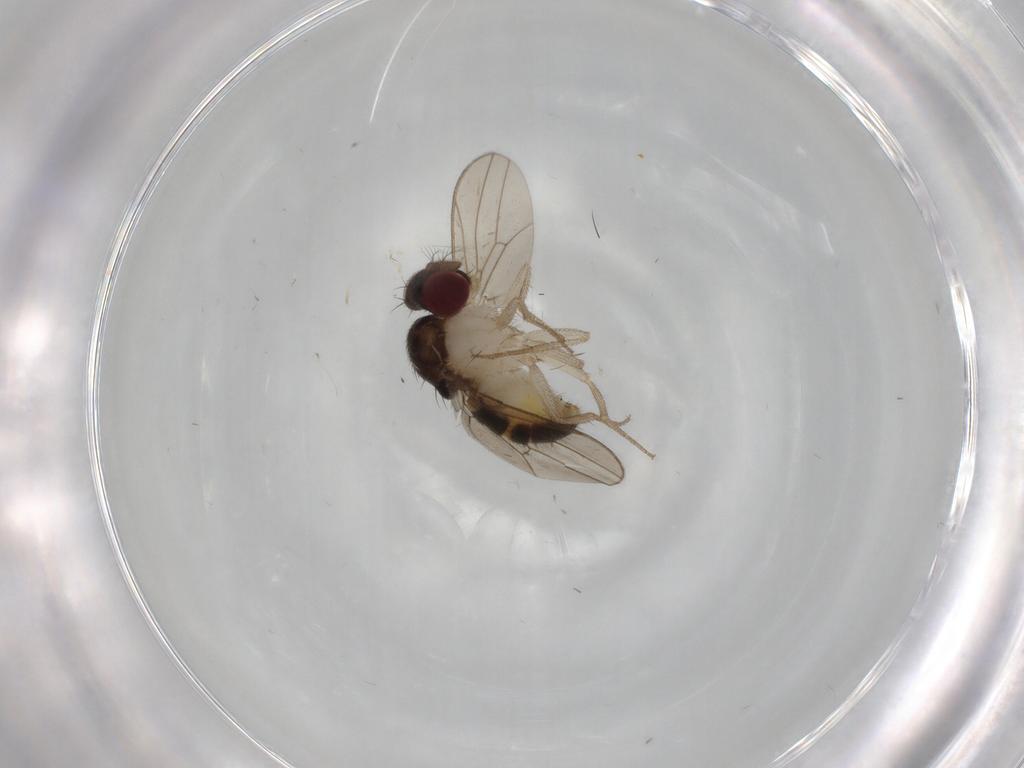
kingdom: Animalia
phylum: Arthropoda
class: Insecta
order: Diptera
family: Drosophilidae
